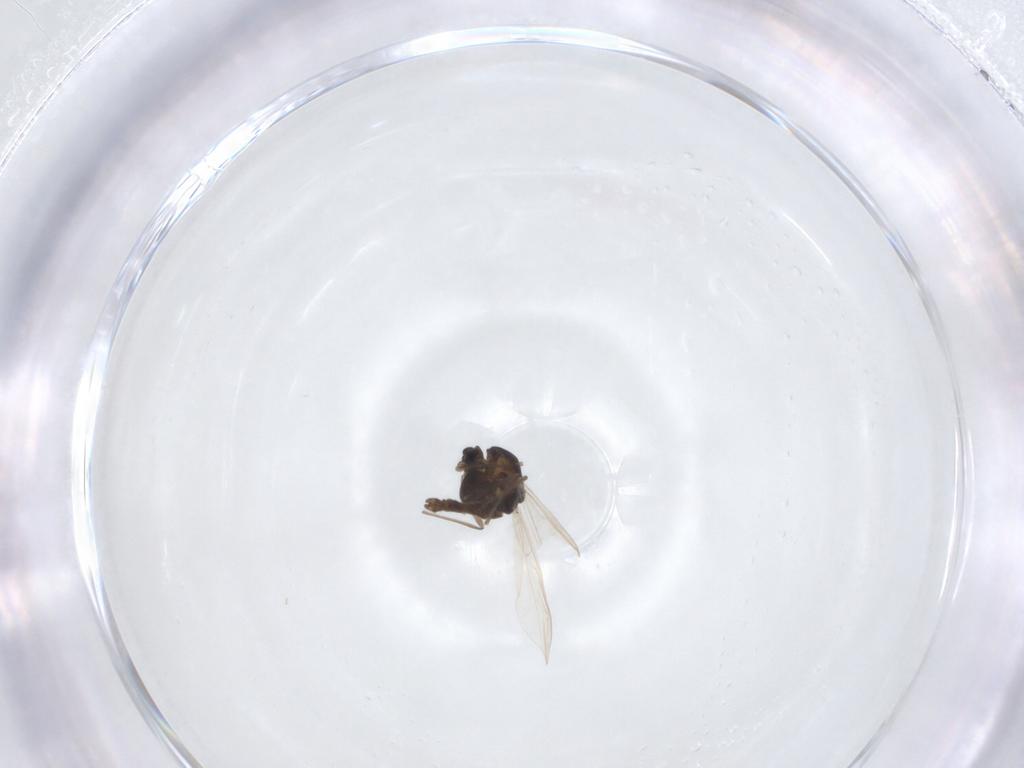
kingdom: Animalia
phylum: Arthropoda
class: Insecta
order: Diptera
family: Chironomidae
